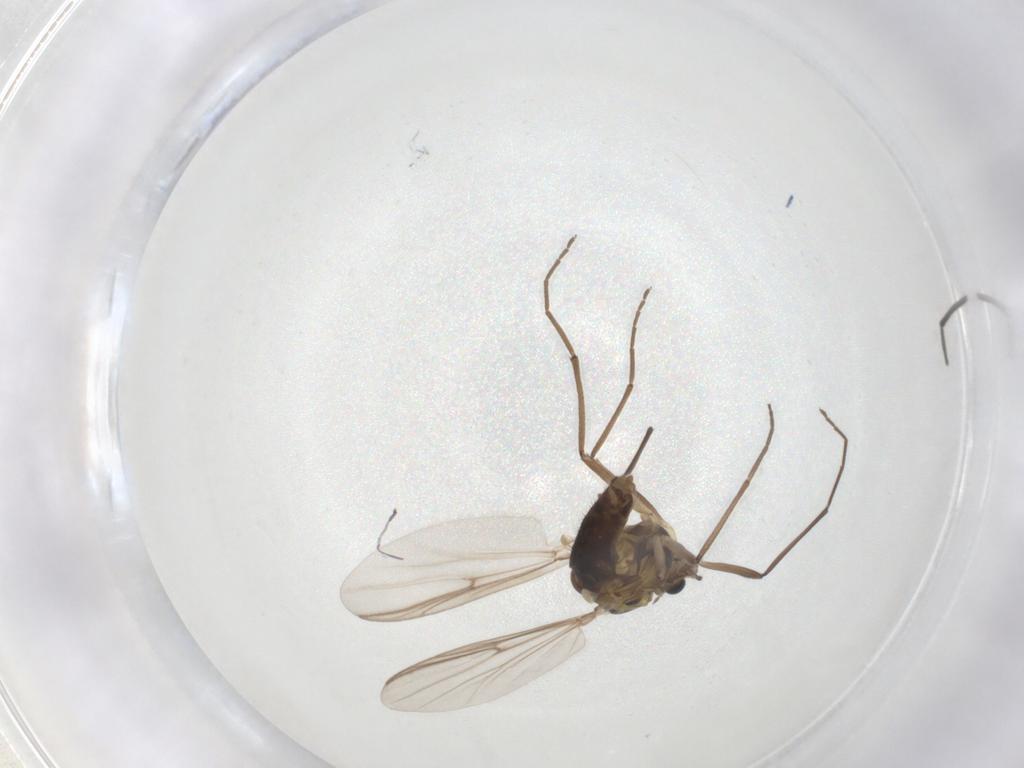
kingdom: Animalia
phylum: Arthropoda
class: Insecta
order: Diptera
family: Chironomidae
